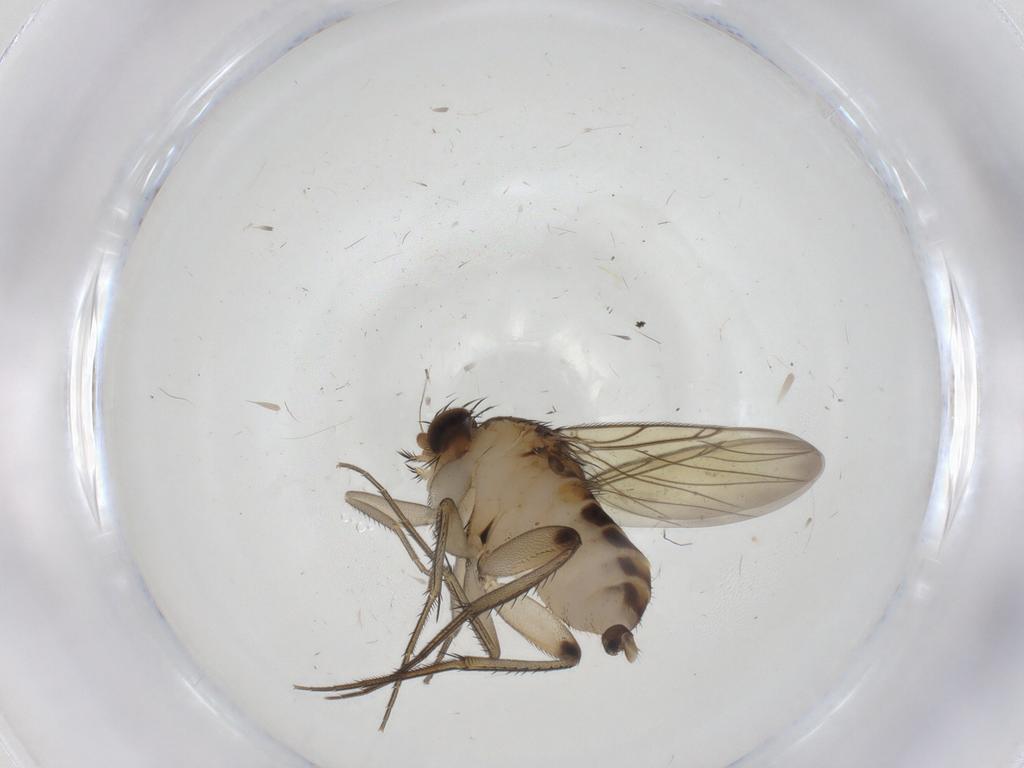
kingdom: Animalia
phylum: Arthropoda
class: Insecta
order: Diptera
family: Phoridae
